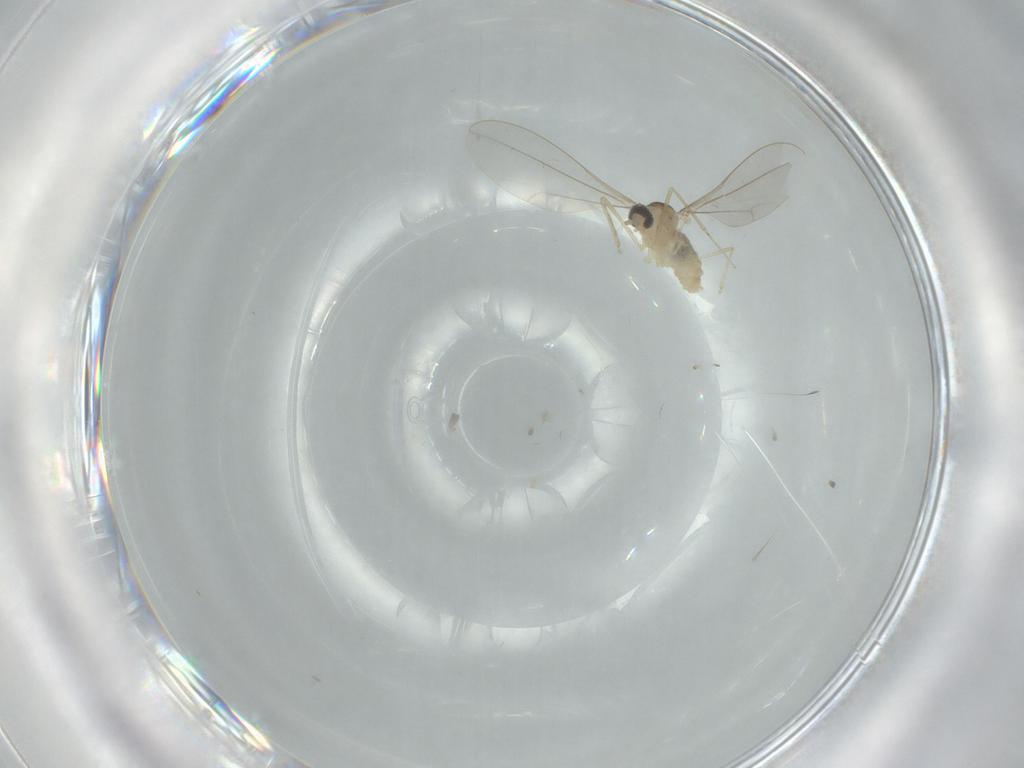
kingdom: Animalia
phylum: Arthropoda
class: Insecta
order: Diptera
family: Cecidomyiidae
